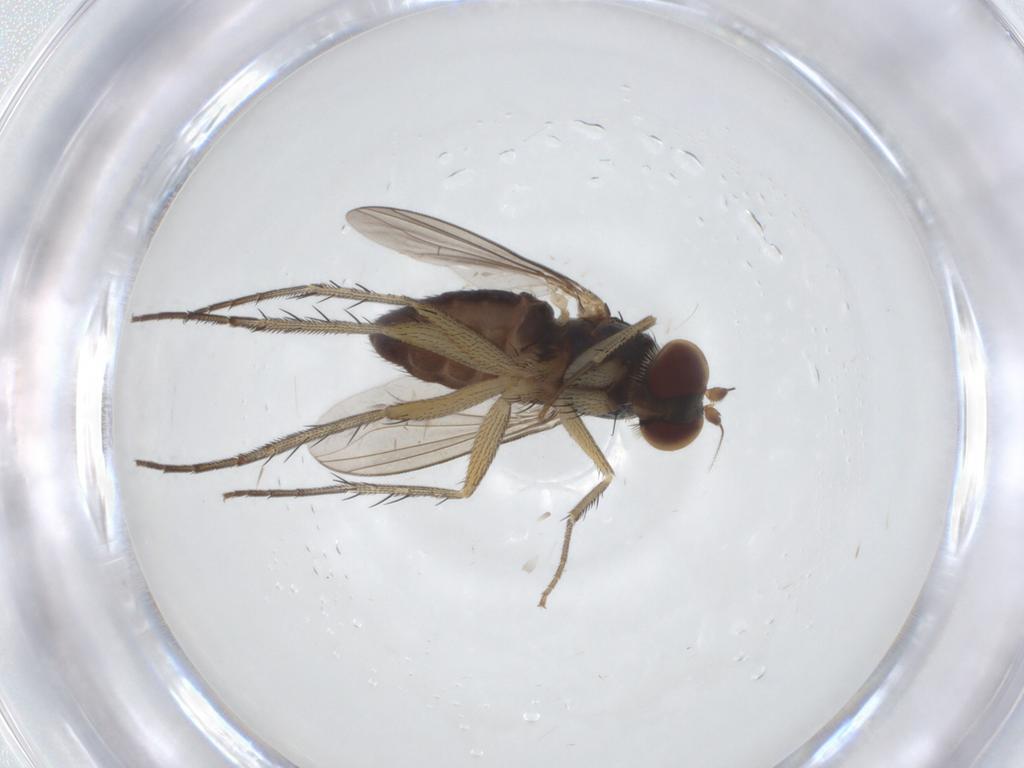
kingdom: Animalia
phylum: Arthropoda
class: Insecta
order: Diptera
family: Dolichopodidae
